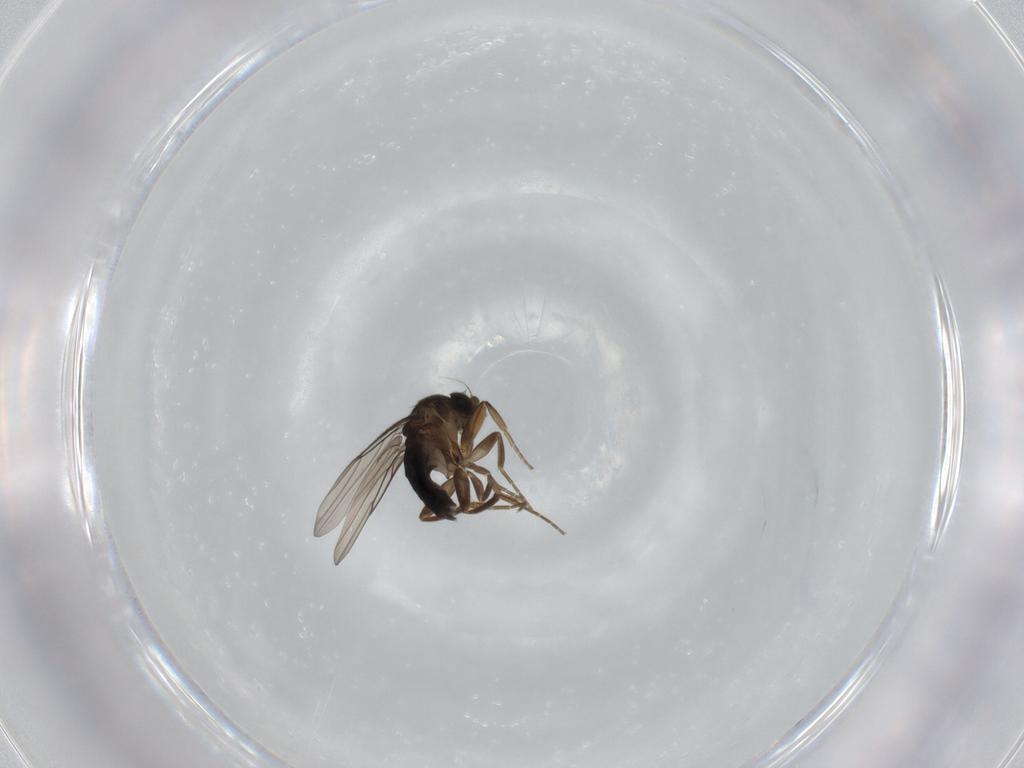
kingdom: Animalia
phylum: Arthropoda
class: Insecta
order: Diptera
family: Phoridae
